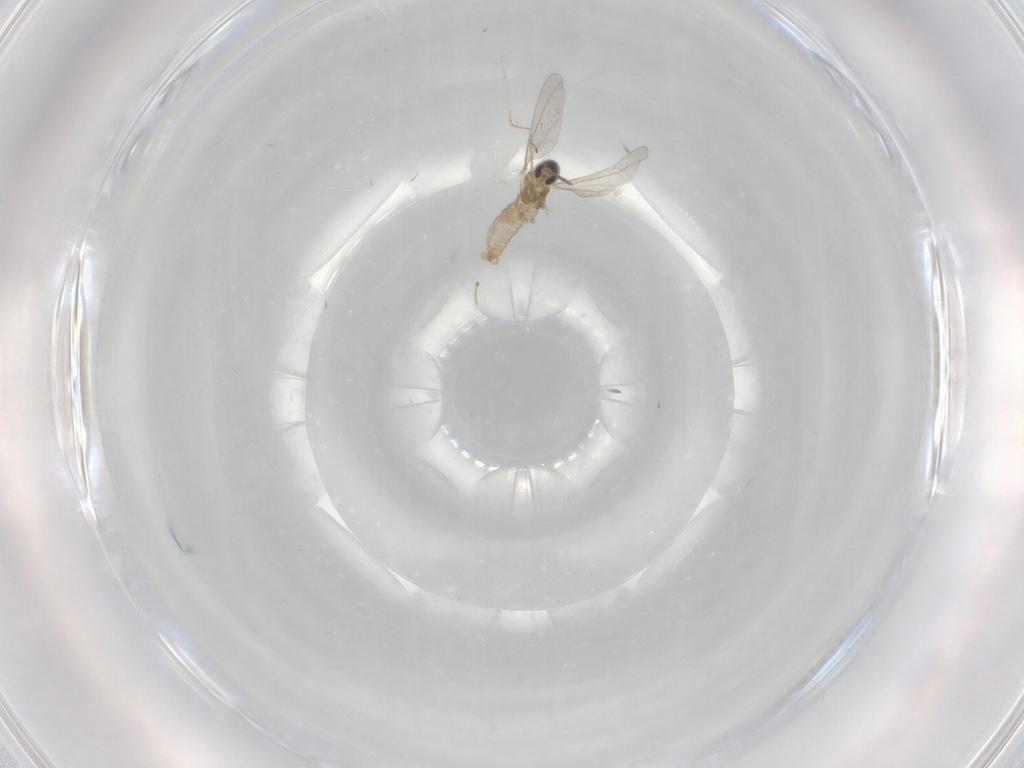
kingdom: Animalia
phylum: Arthropoda
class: Insecta
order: Diptera
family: Cecidomyiidae
